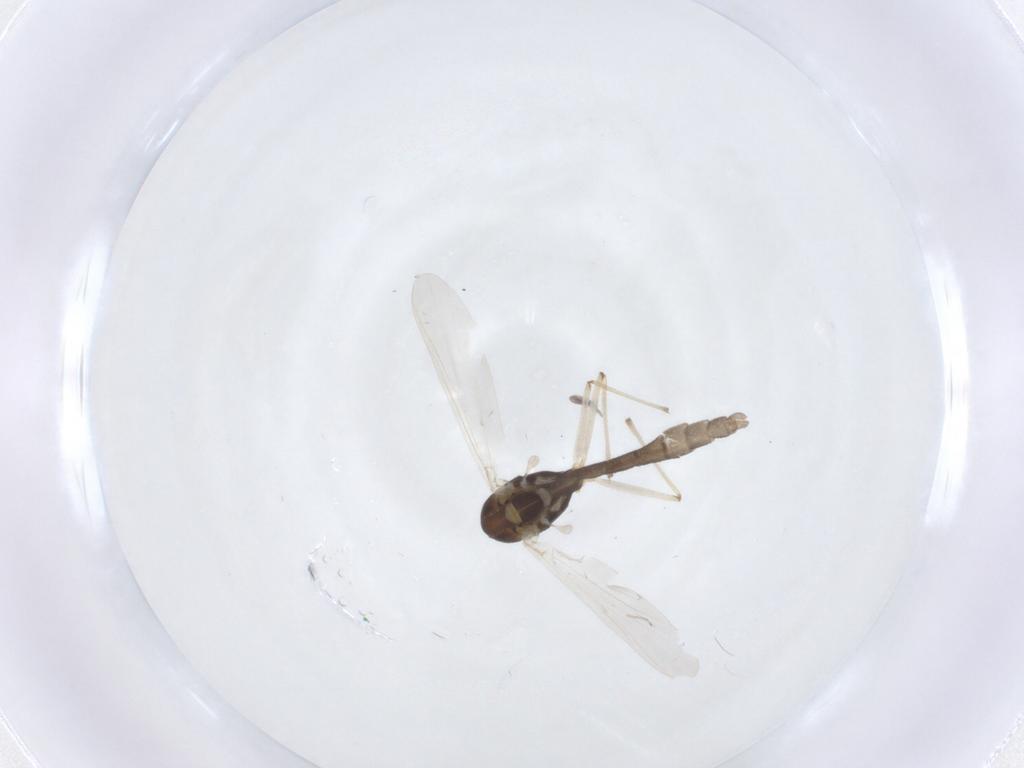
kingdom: Animalia
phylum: Arthropoda
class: Insecta
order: Diptera
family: Chironomidae
